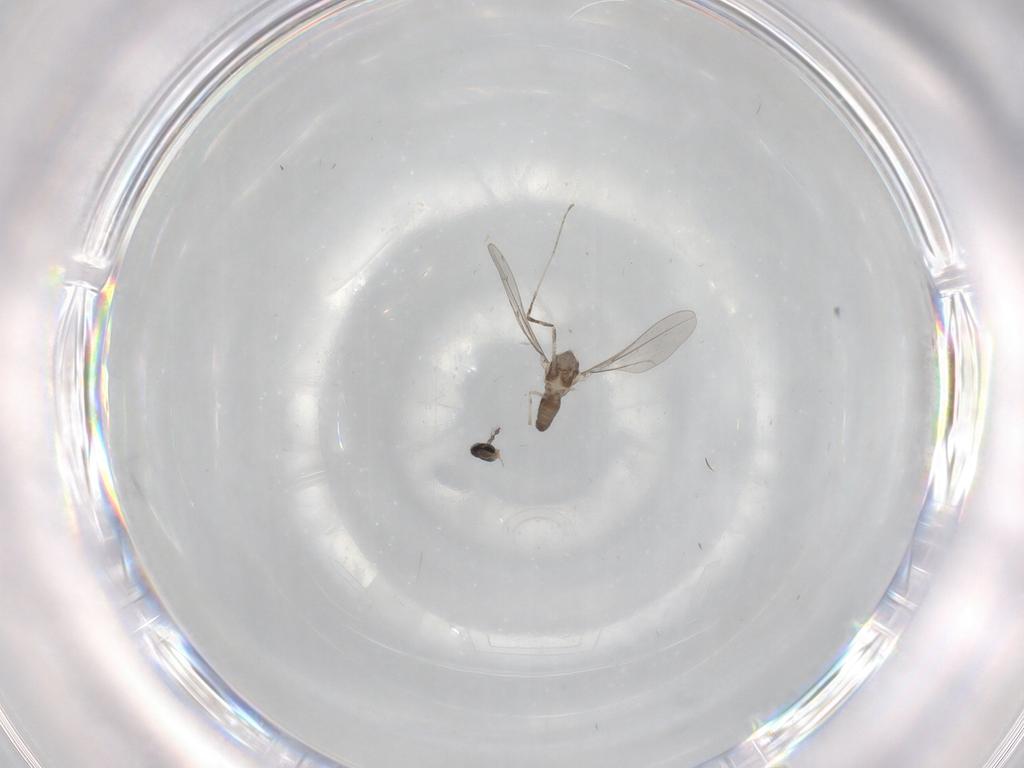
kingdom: Animalia
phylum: Arthropoda
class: Insecta
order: Diptera
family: Cecidomyiidae
